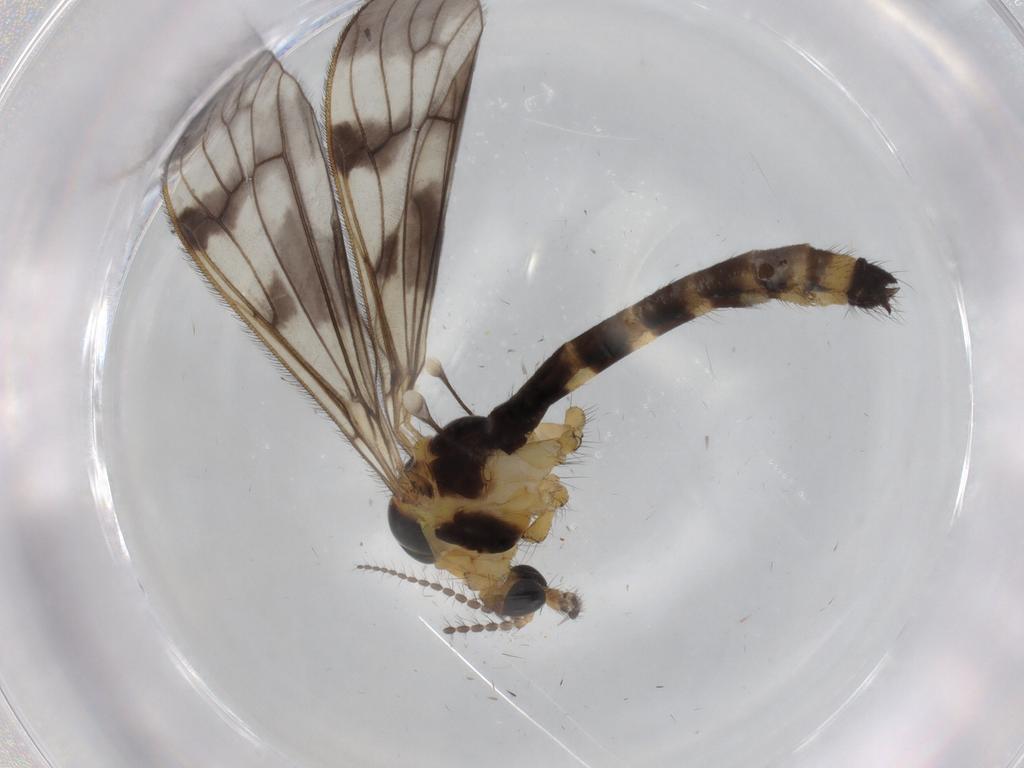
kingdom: Animalia
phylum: Arthropoda
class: Insecta
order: Diptera
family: Limoniidae
